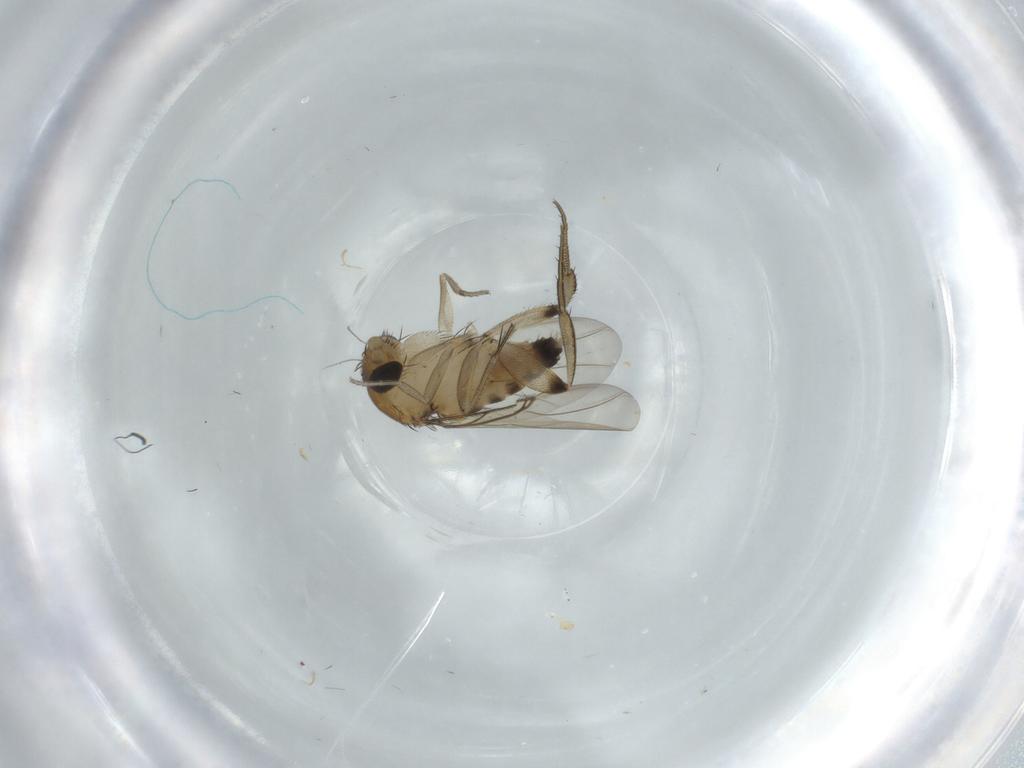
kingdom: Animalia
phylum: Arthropoda
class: Insecta
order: Diptera
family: Phoridae
